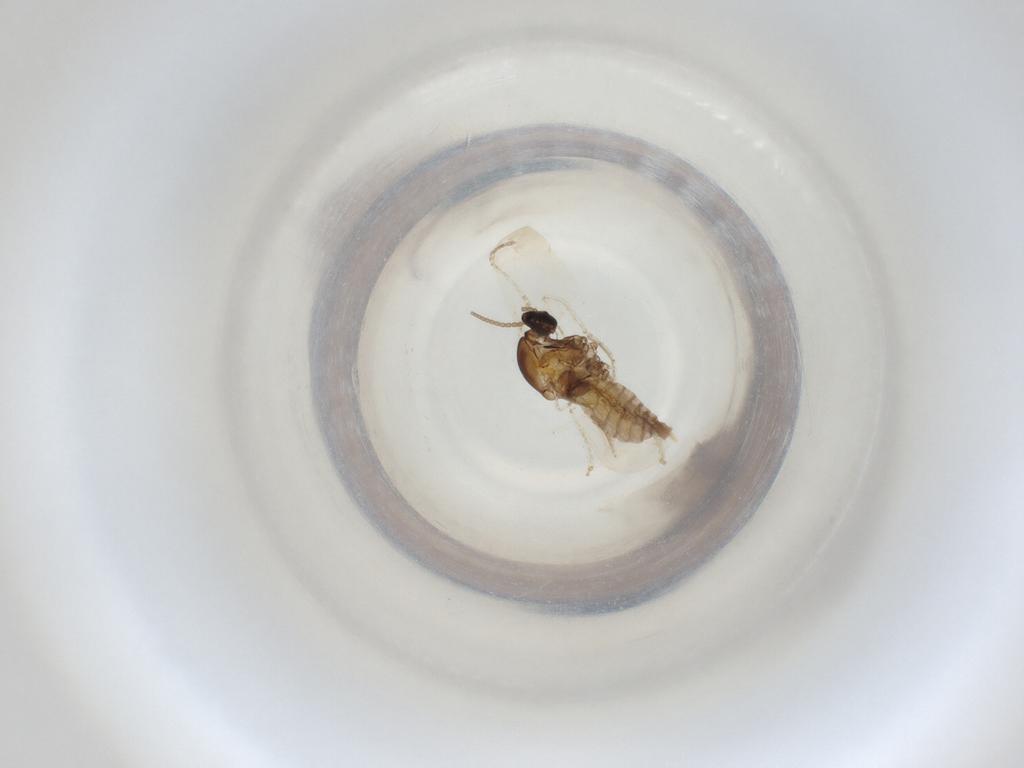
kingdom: Animalia
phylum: Arthropoda
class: Insecta
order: Diptera
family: Cecidomyiidae
